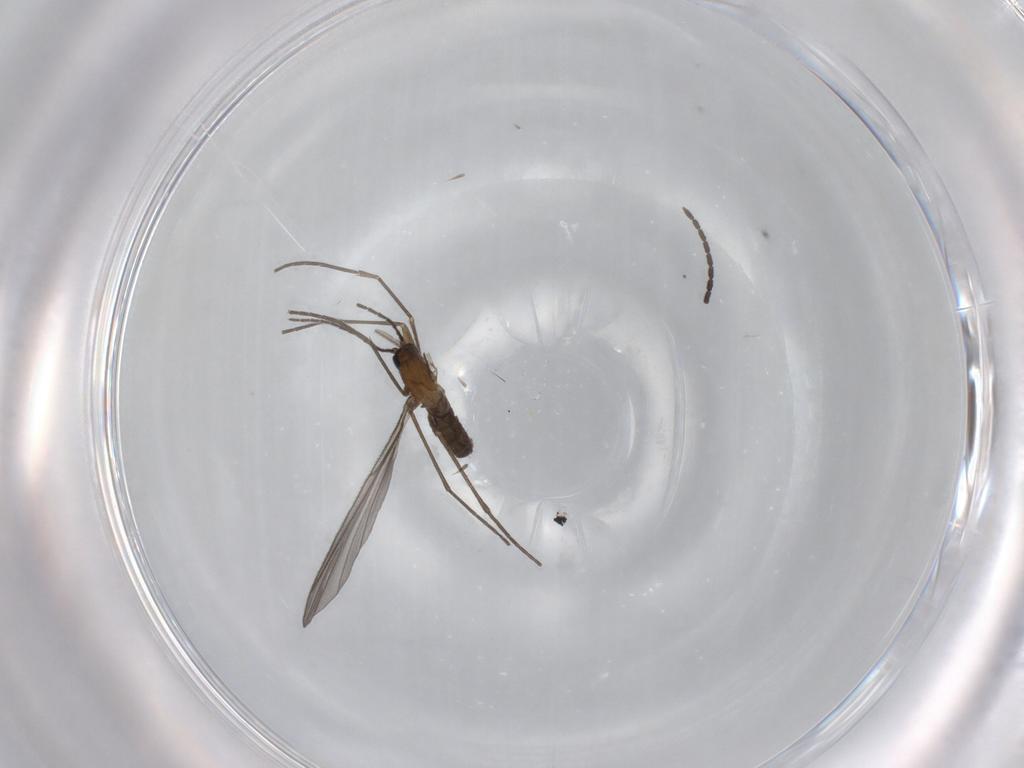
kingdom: Animalia
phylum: Arthropoda
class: Insecta
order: Diptera
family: Sciaridae
